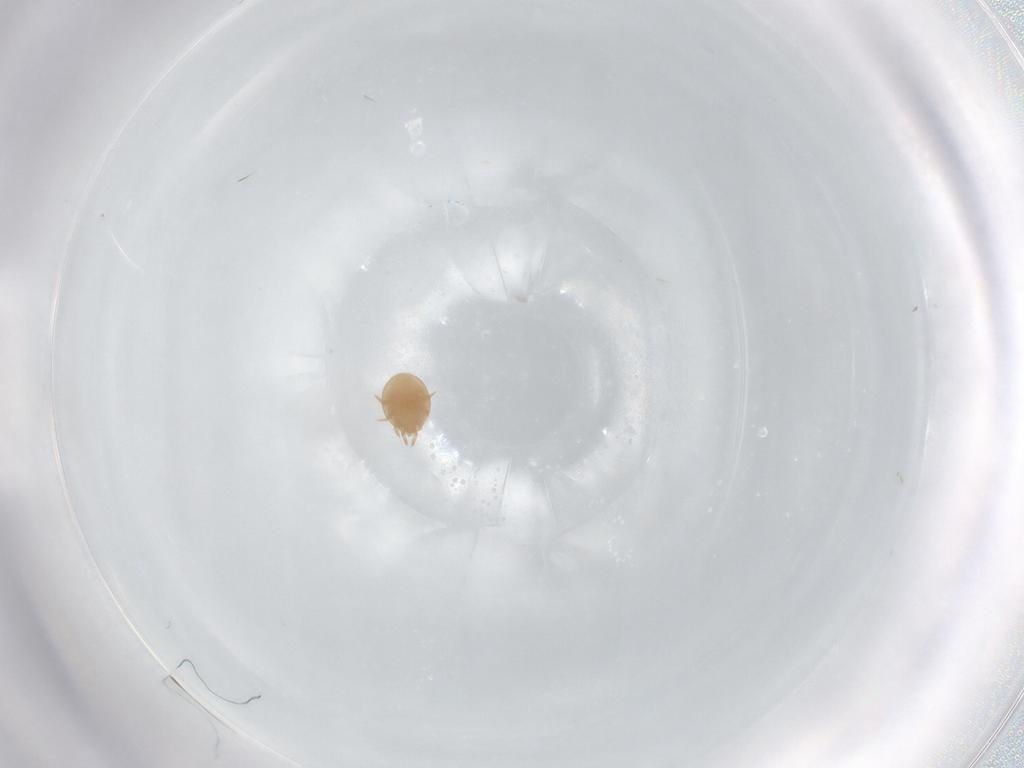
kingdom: Animalia
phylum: Arthropoda
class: Arachnida
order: Mesostigmata
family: Trematuridae
